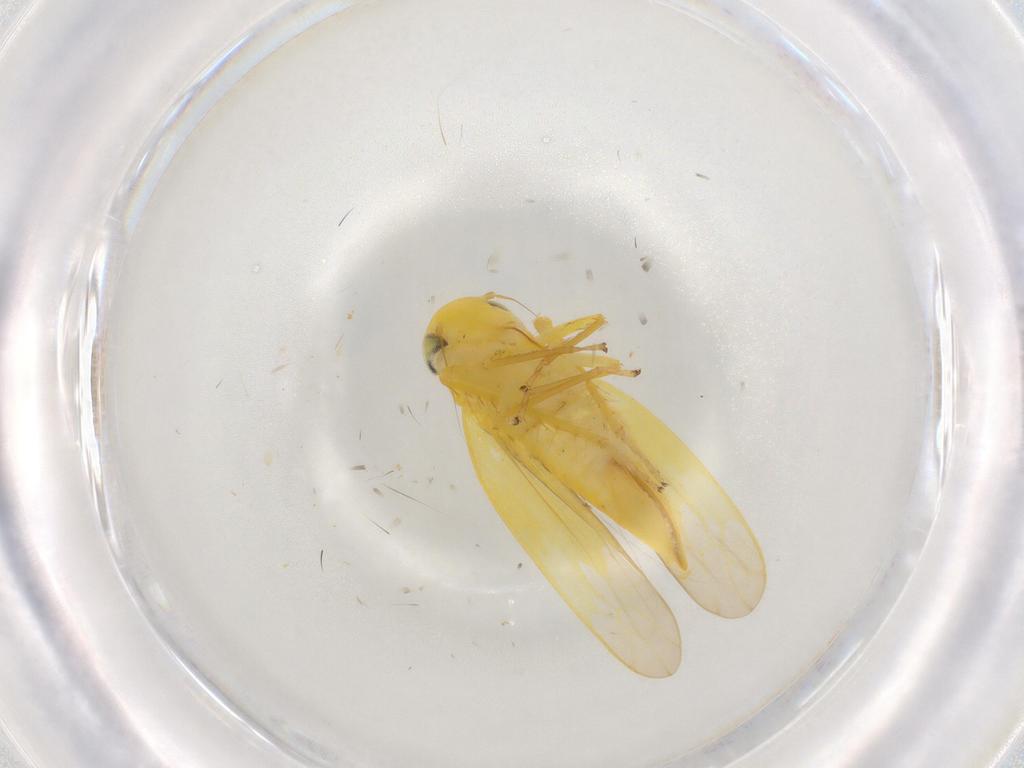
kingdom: Animalia
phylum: Arthropoda
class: Insecta
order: Hemiptera
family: Cicadellidae
